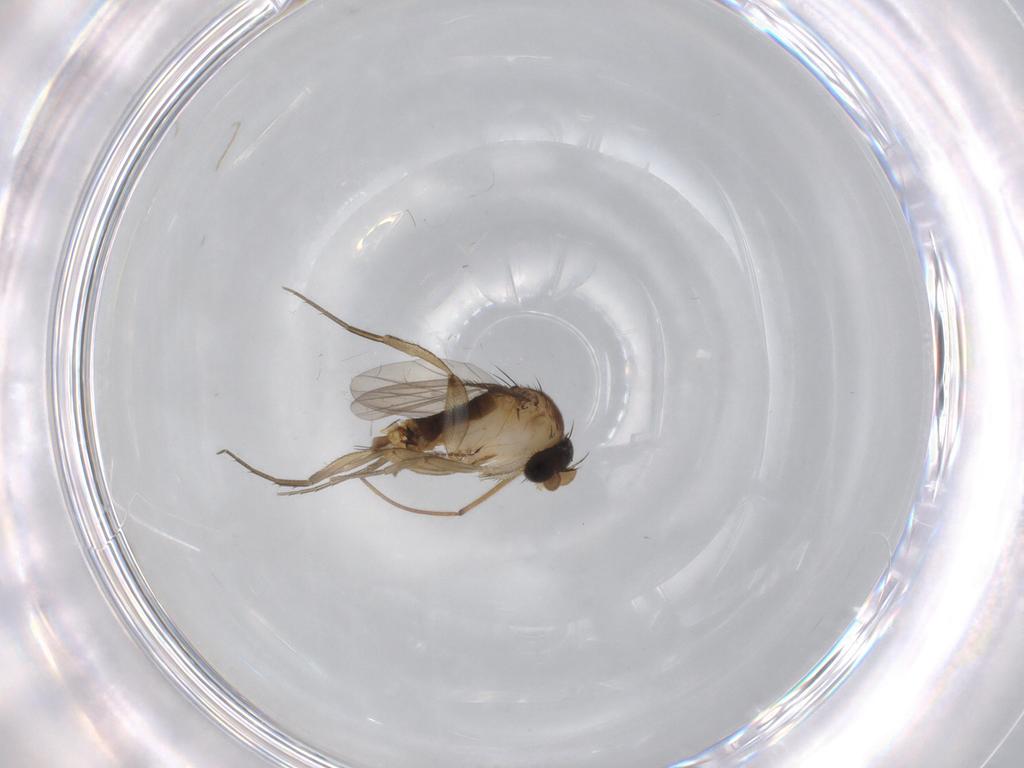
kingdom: Animalia
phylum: Arthropoda
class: Insecta
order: Diptera
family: Phoridae
